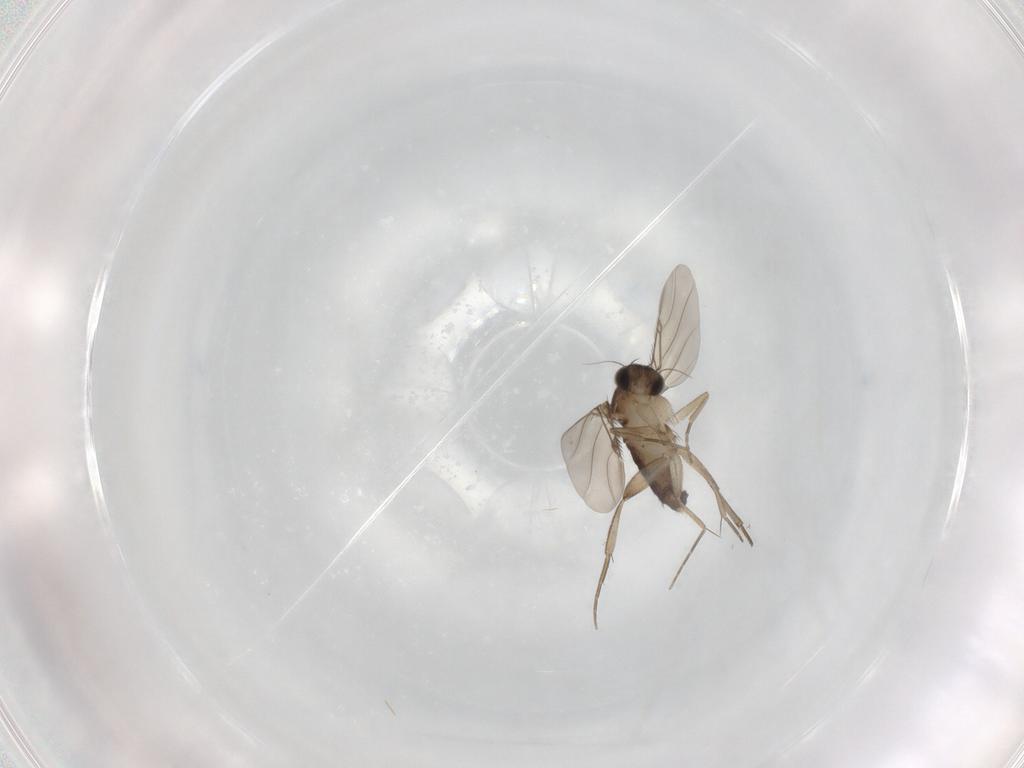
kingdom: Animalia
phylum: Arthropoda
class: Insecta
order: Diptera
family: Phoridae
